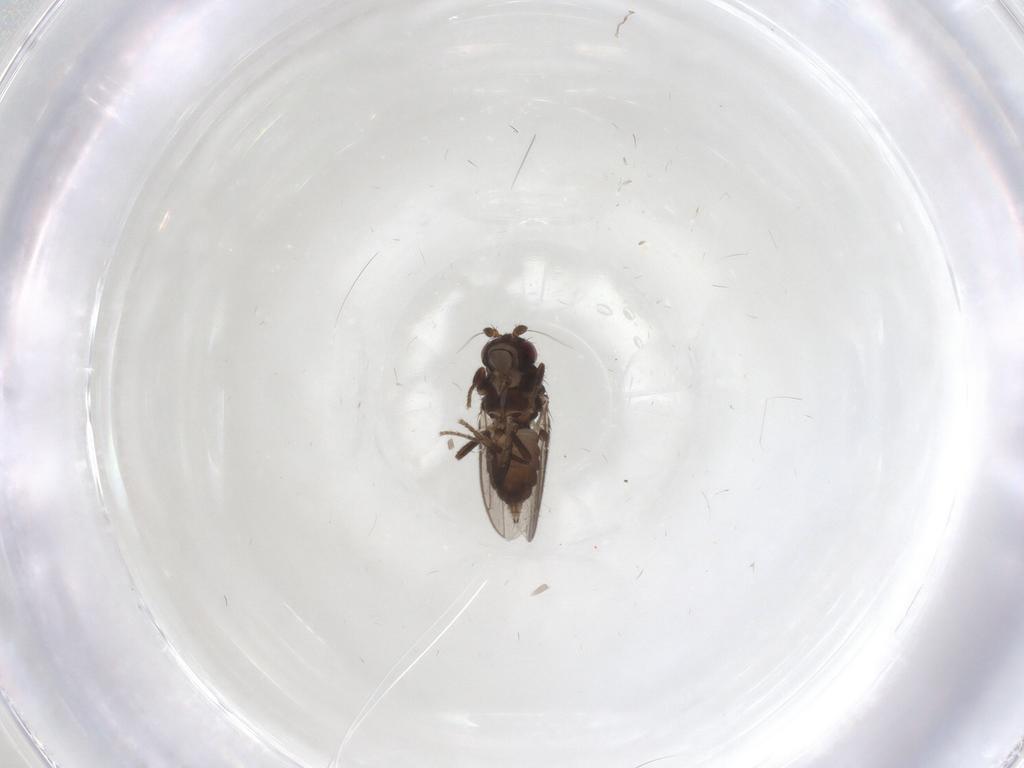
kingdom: Animalia
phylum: Arthropoda
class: Insecta
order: Diptera
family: Sphaeroceridae
